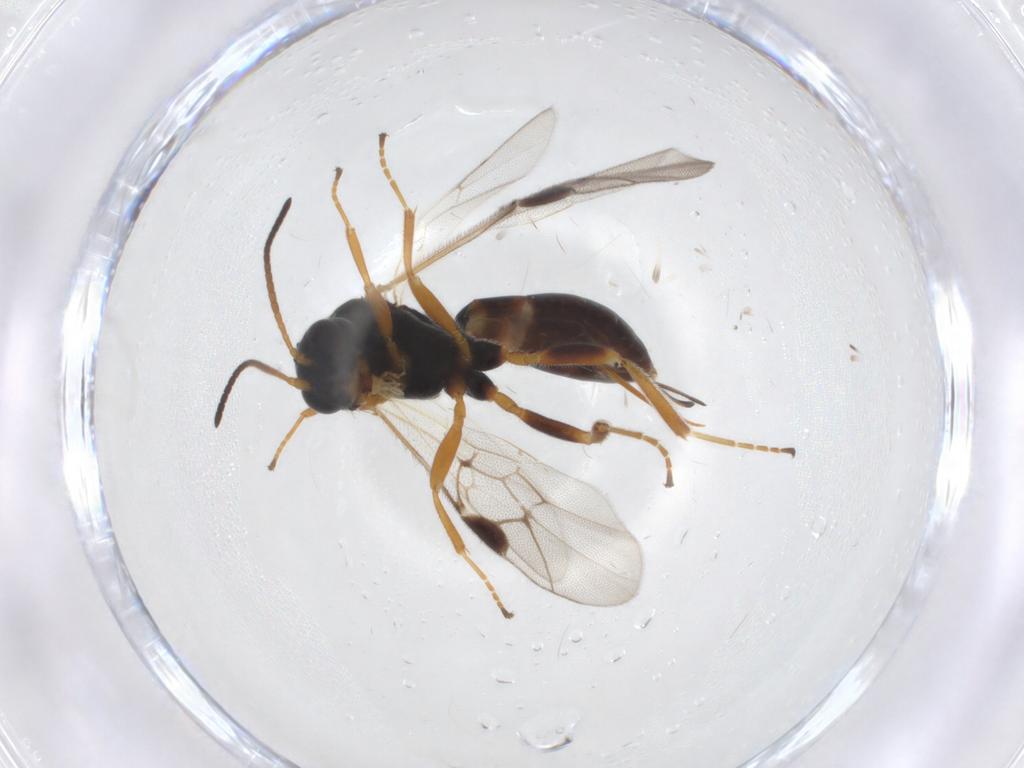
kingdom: Animalia
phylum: Arthropoda
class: Insecta
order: Hymenoptera
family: Ichneumonidae
